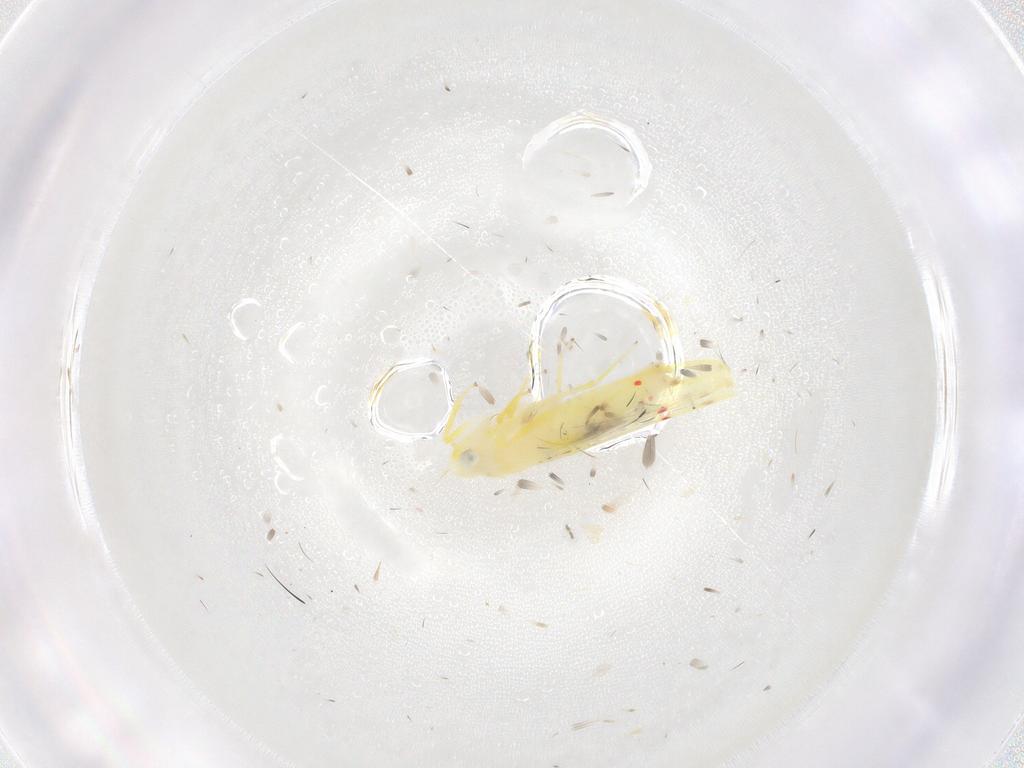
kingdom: Animalia
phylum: Arthropoda
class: Insecta
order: Hemiptera
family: Cicadellidae
